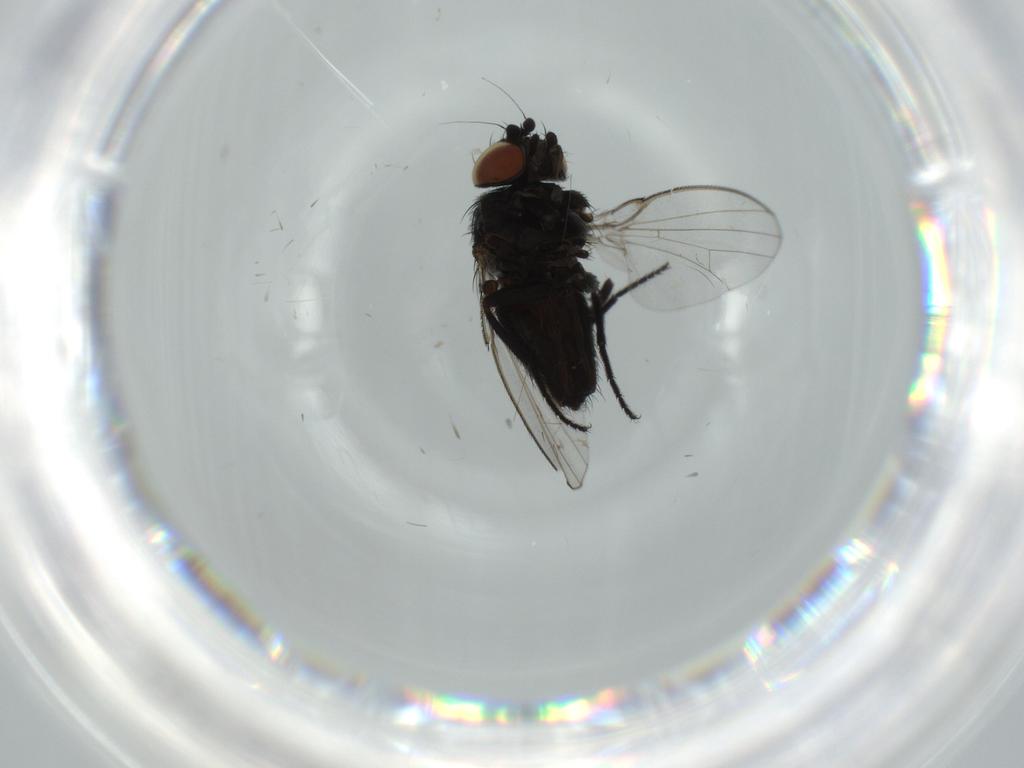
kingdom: Animalia
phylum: Arthropoda
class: Insecta
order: Diptera
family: Milichiidae
